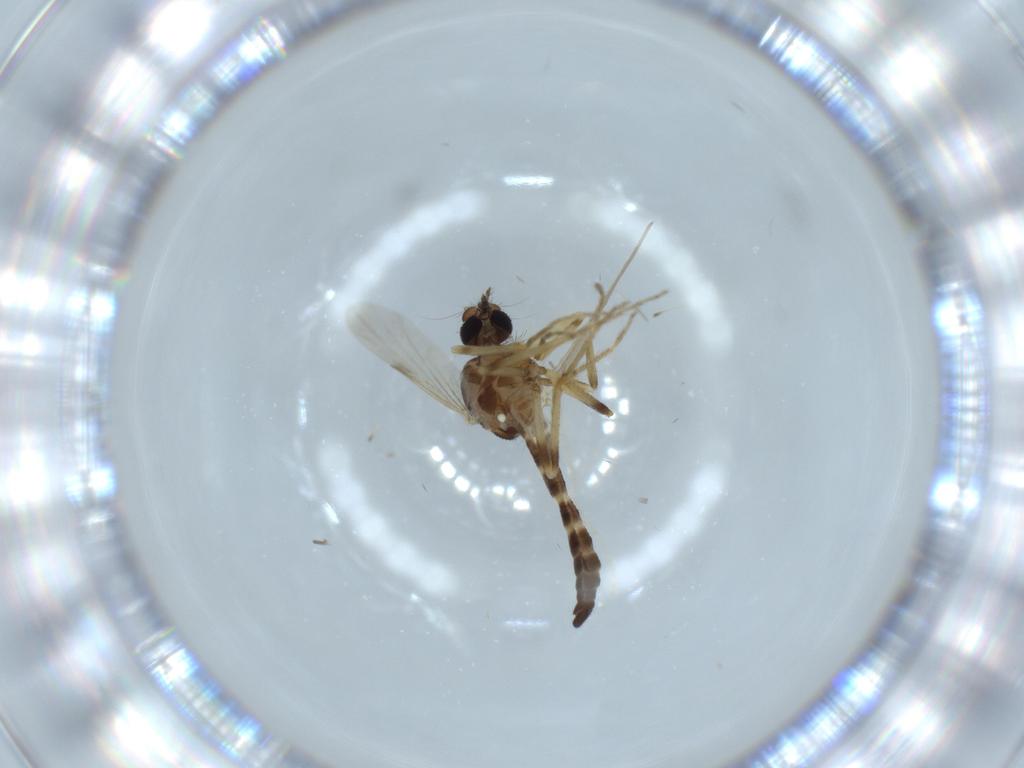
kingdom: Animalia
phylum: Arthropoda
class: Insecta
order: Diptera
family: Ceratopogonidae
